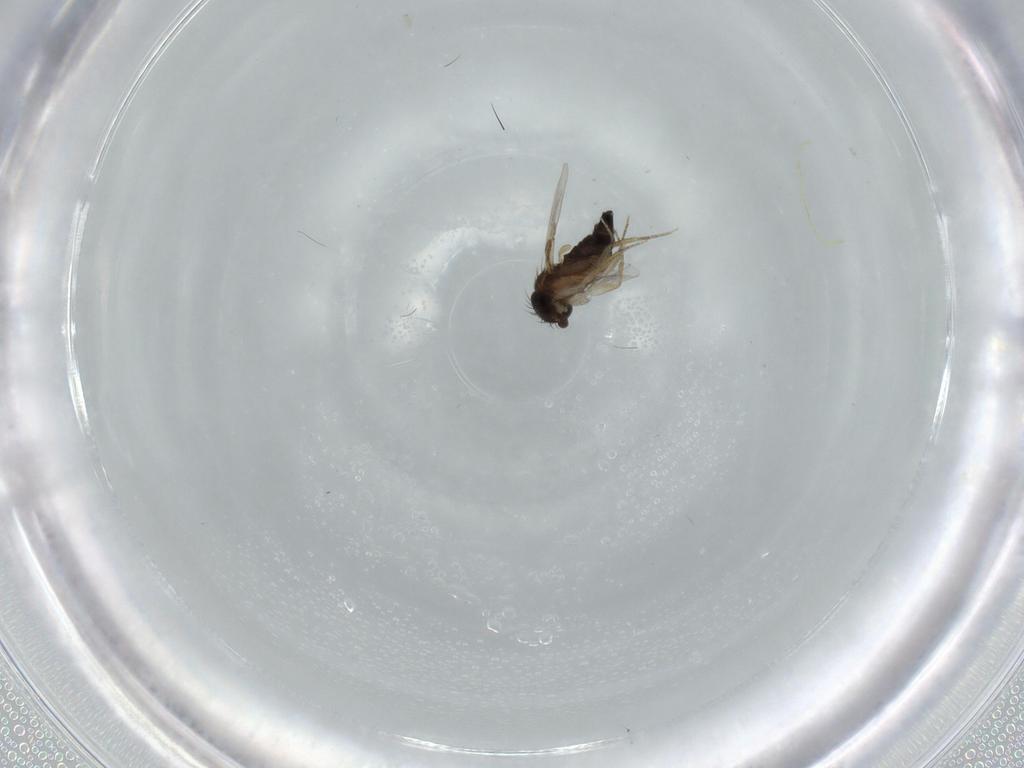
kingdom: Animalia
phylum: Arthropoda
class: Insecta
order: Diptera
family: Phoridae
